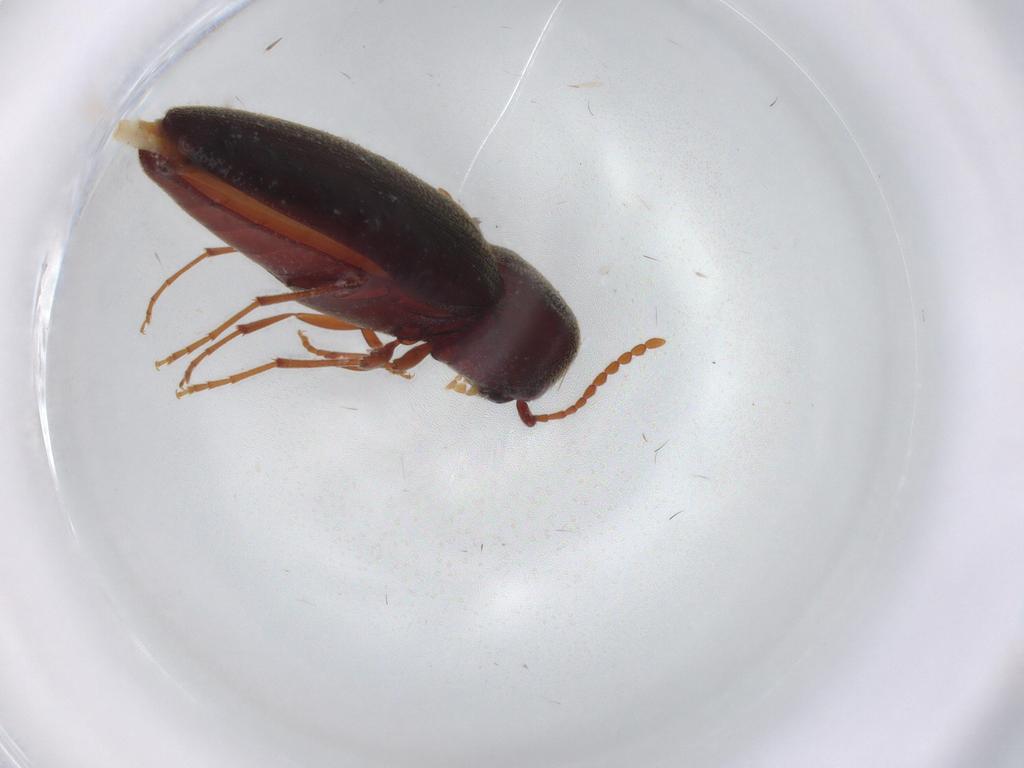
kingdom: Animalia
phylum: Arthropoda
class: Insecta
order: Coleoptera
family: Eucnemidae
